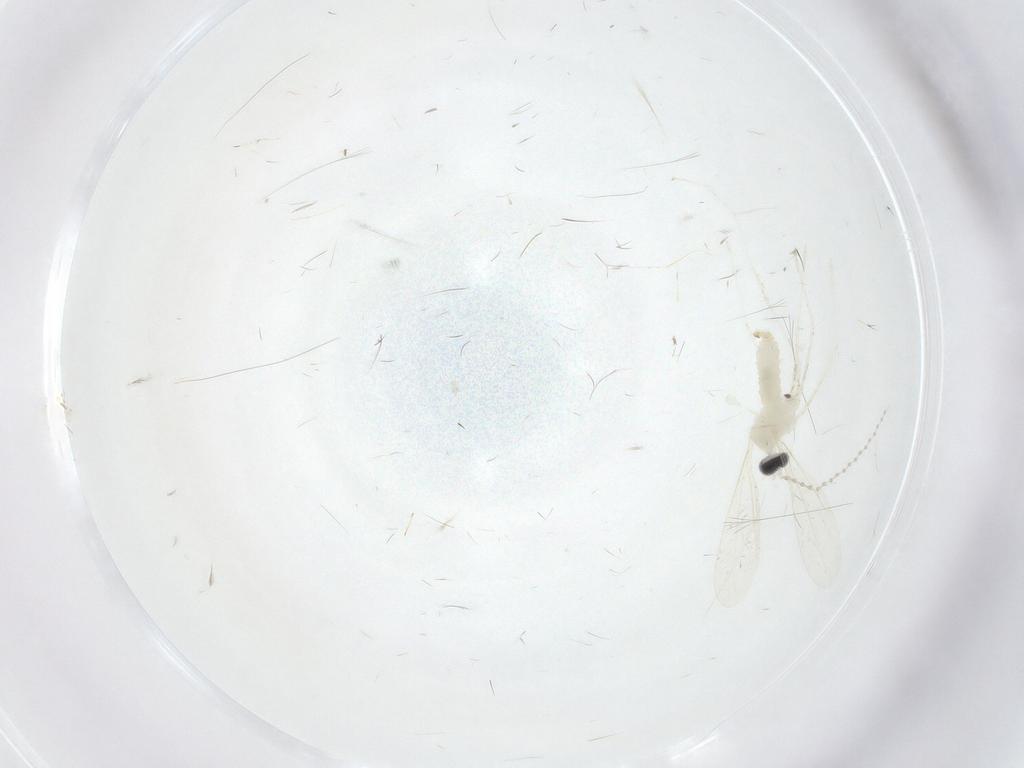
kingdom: Animalia
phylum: Arthropoda
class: Insecta
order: Diptera
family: Cecidomyiidae
